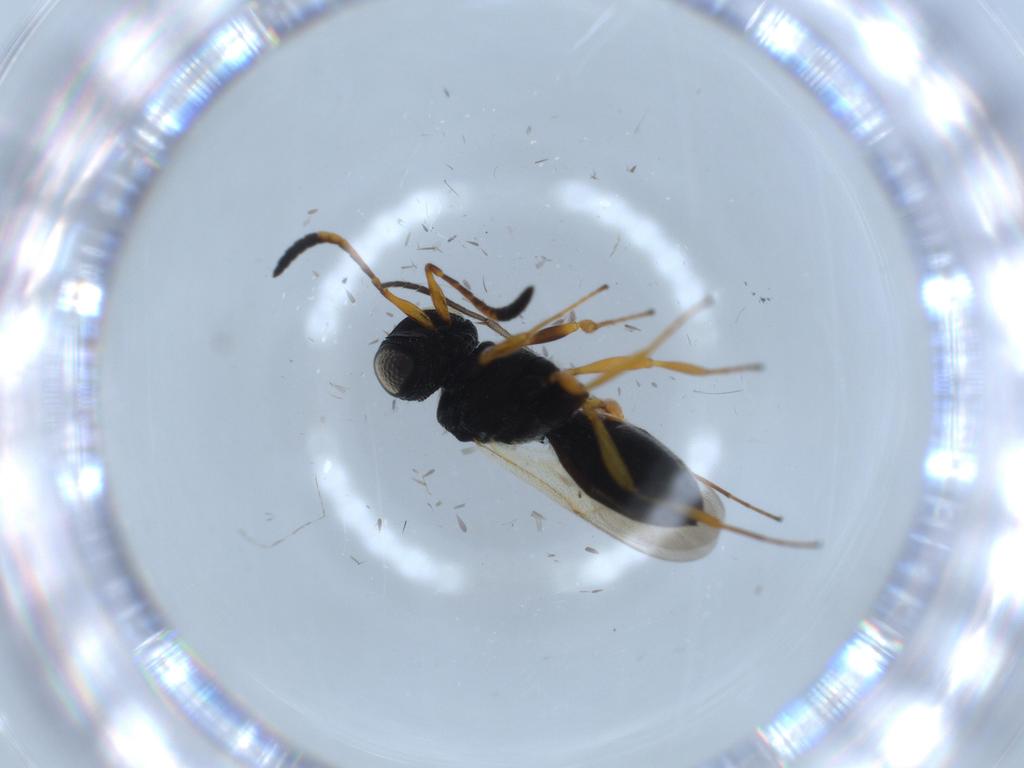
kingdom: Animalia
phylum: Arthropoda
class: Insecta
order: Hymenoptera
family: Scelionidae
